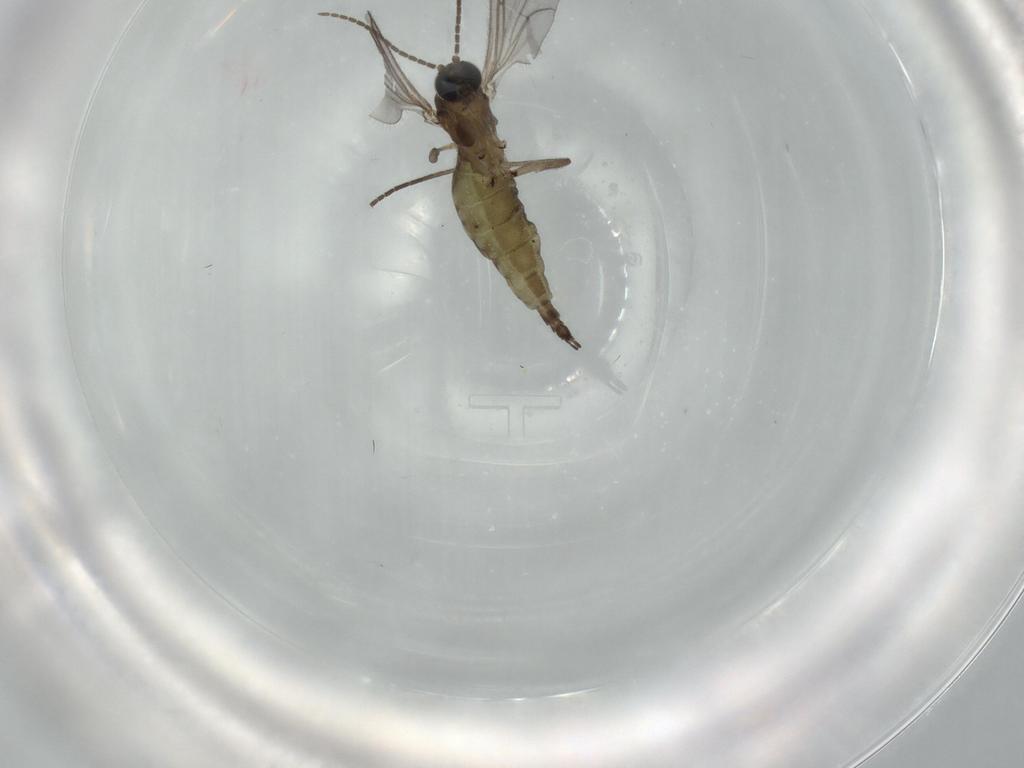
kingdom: Animalia
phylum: Arthropoda
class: Insecta
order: Diptera
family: Sciaridae
